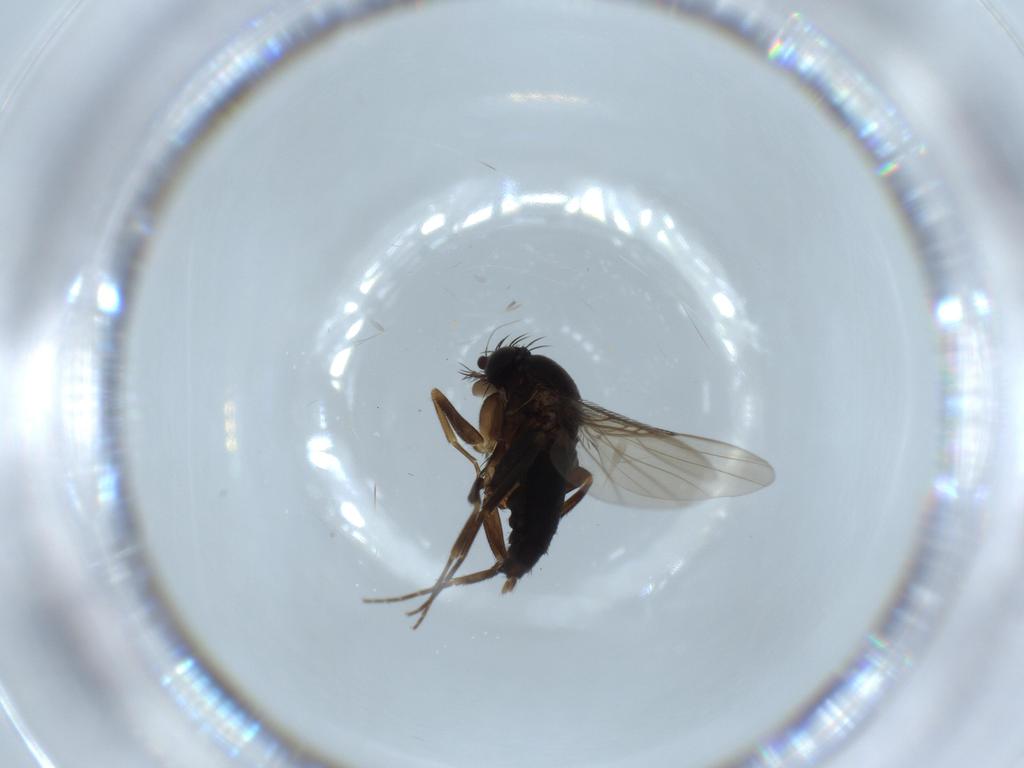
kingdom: Animalia
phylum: Arthropoda
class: Insecta
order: Diptera
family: Phoridae
